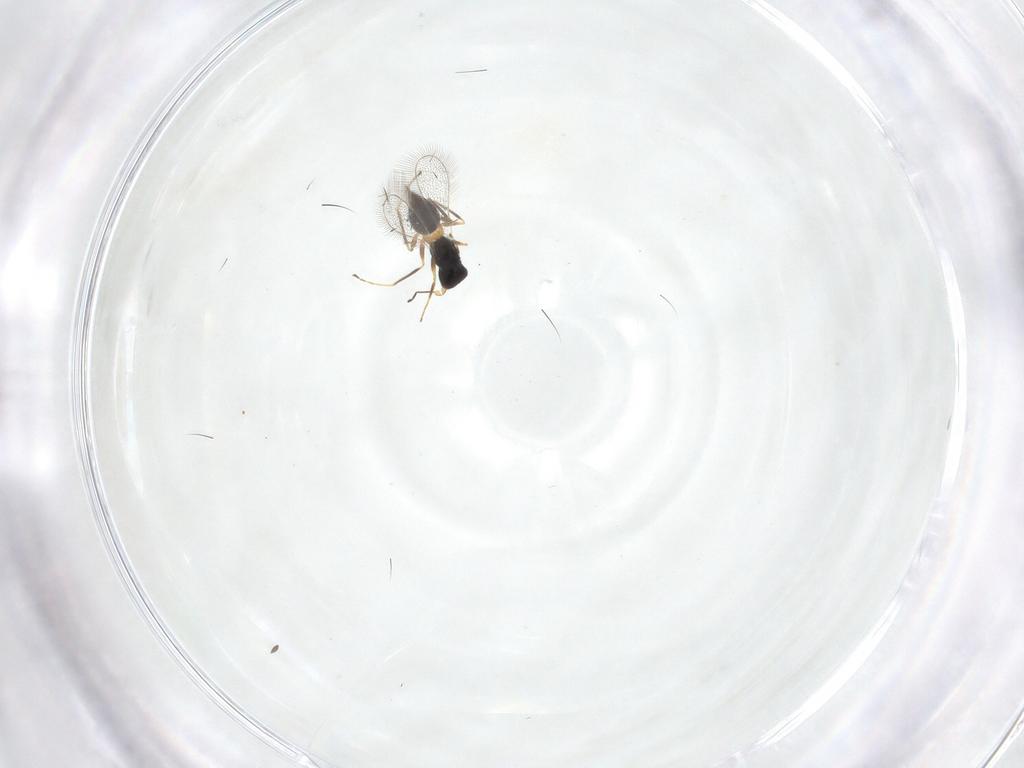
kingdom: Animalia
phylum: Arthropoda
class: Insecta
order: Hymenoptera
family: Mymaridae
